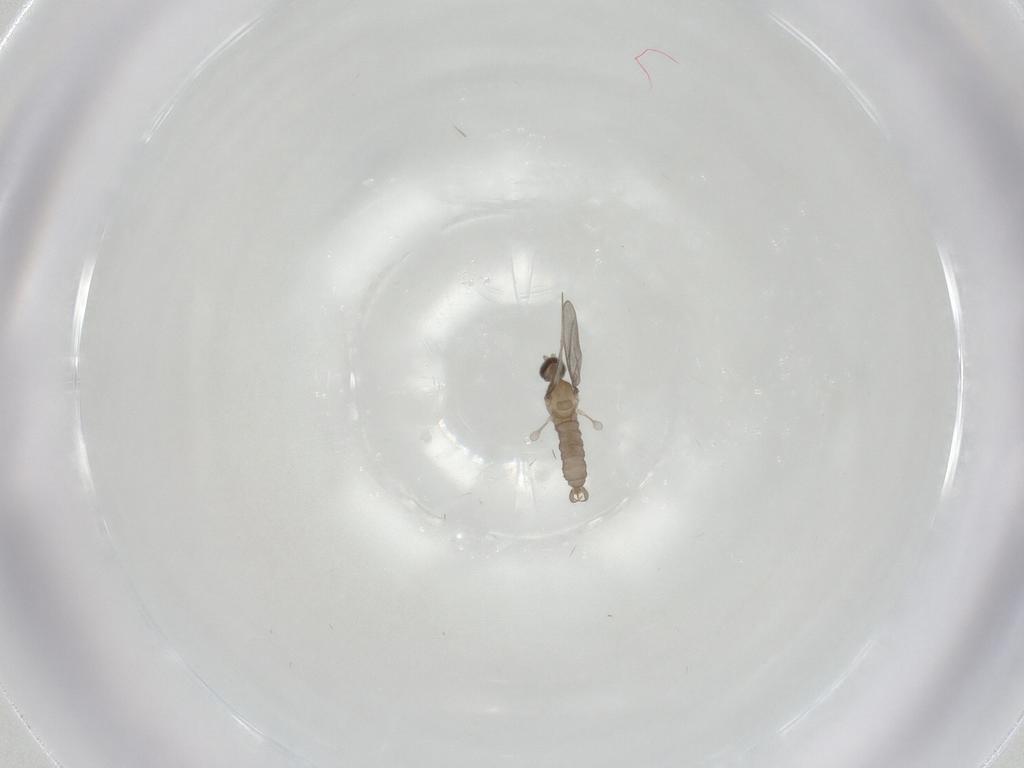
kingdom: Animalia
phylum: Arthropoda
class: Insecta
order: Diptera
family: Cecidomyiidae
